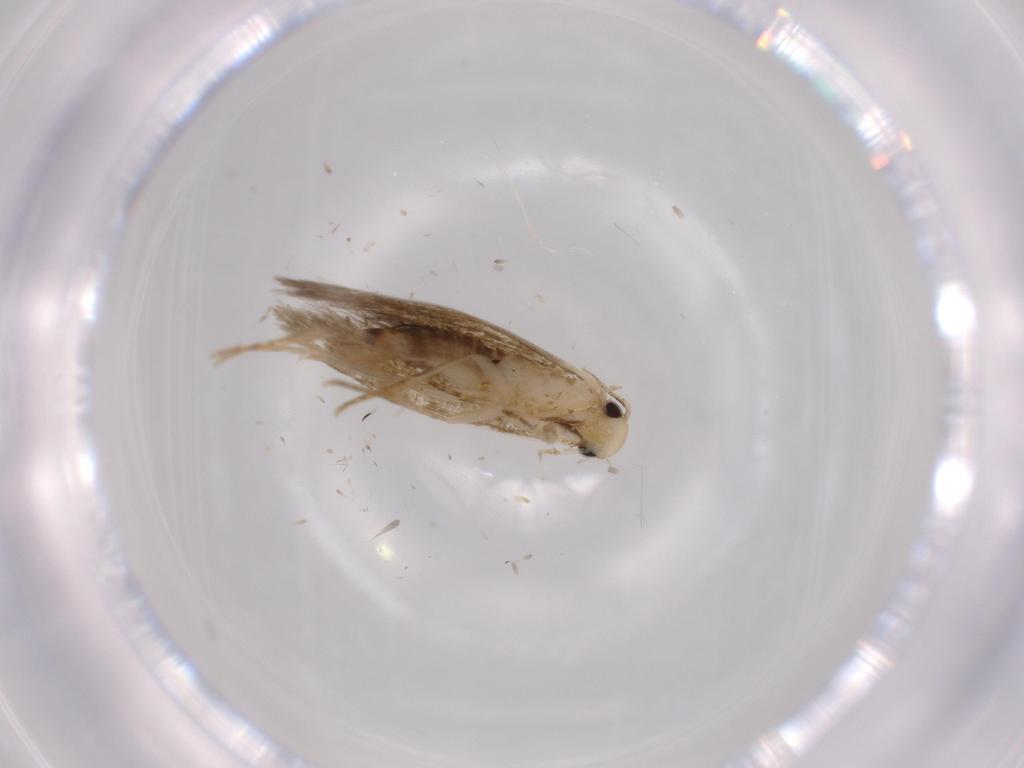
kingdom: Animalia
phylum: Arthropoda
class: Insecta
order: Lepidoptera
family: Tineidae
